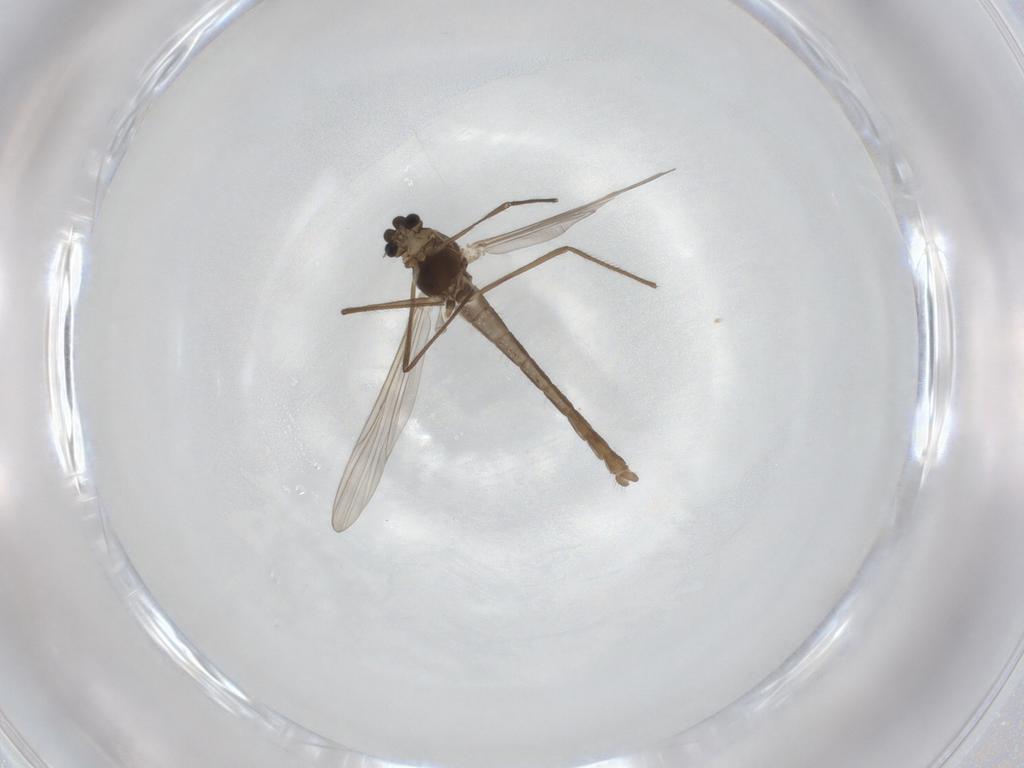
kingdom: Animalia
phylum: Arthropoda
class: Insecta
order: Diptera
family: Chironomidae
